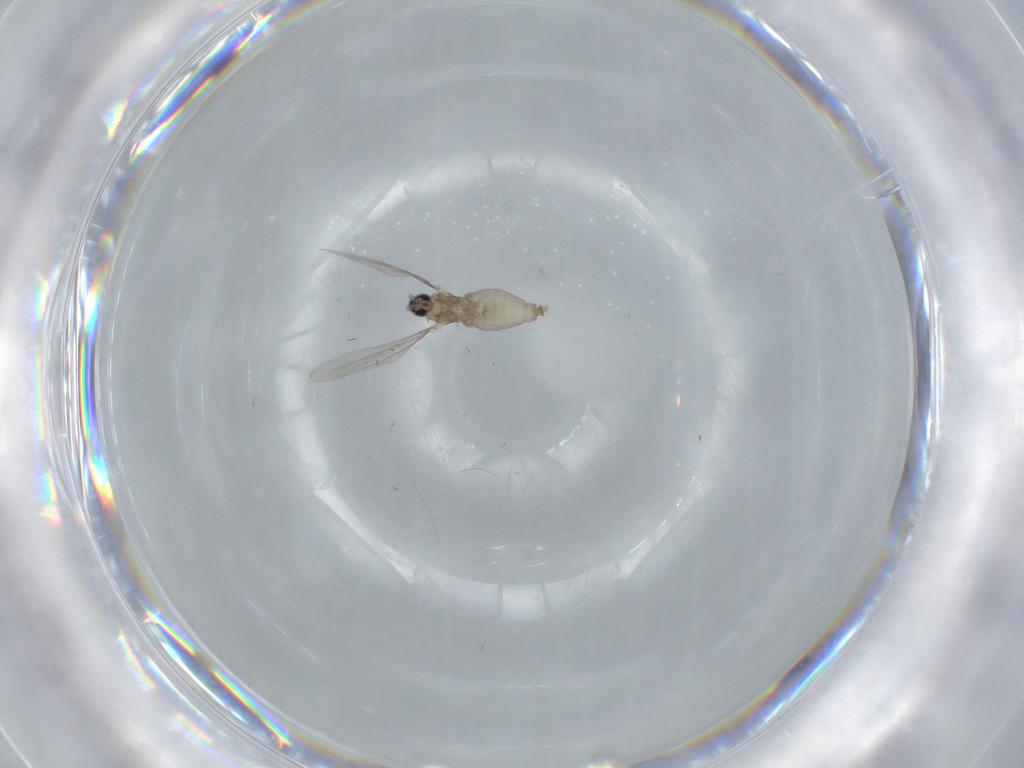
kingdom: Animalia
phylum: Arthropoda
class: Insecta
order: Diptera
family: Cecidomyiidae
